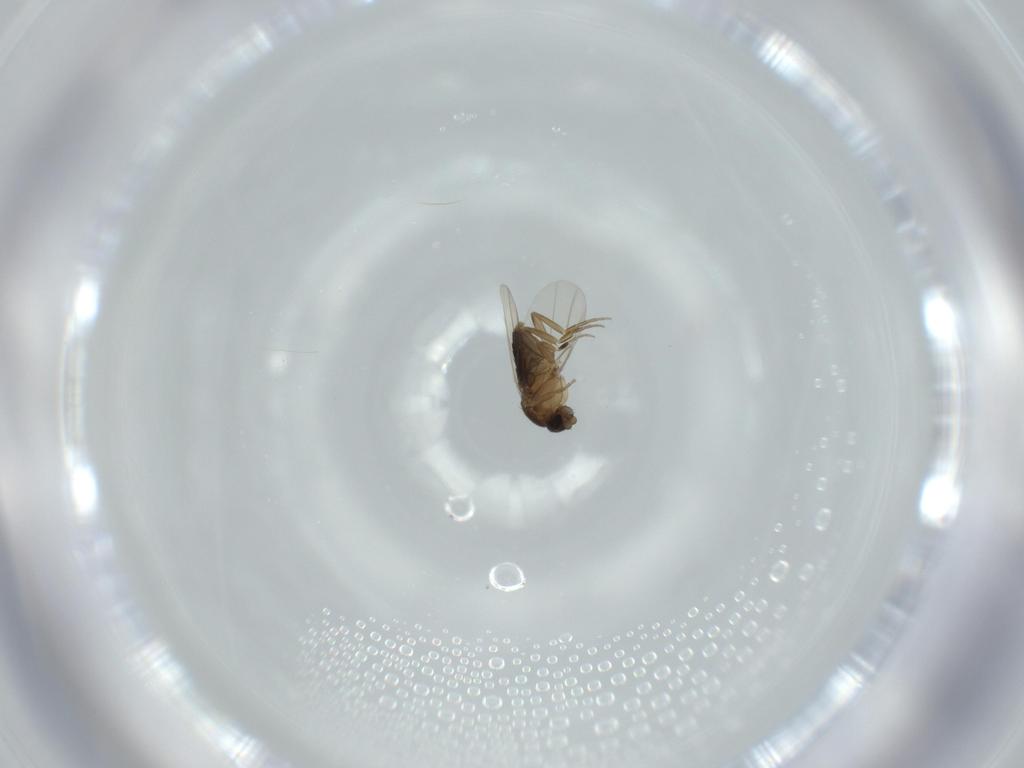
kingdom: Animalia
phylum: Arthropoda
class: Insecta
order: Diptera
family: Phoridae
